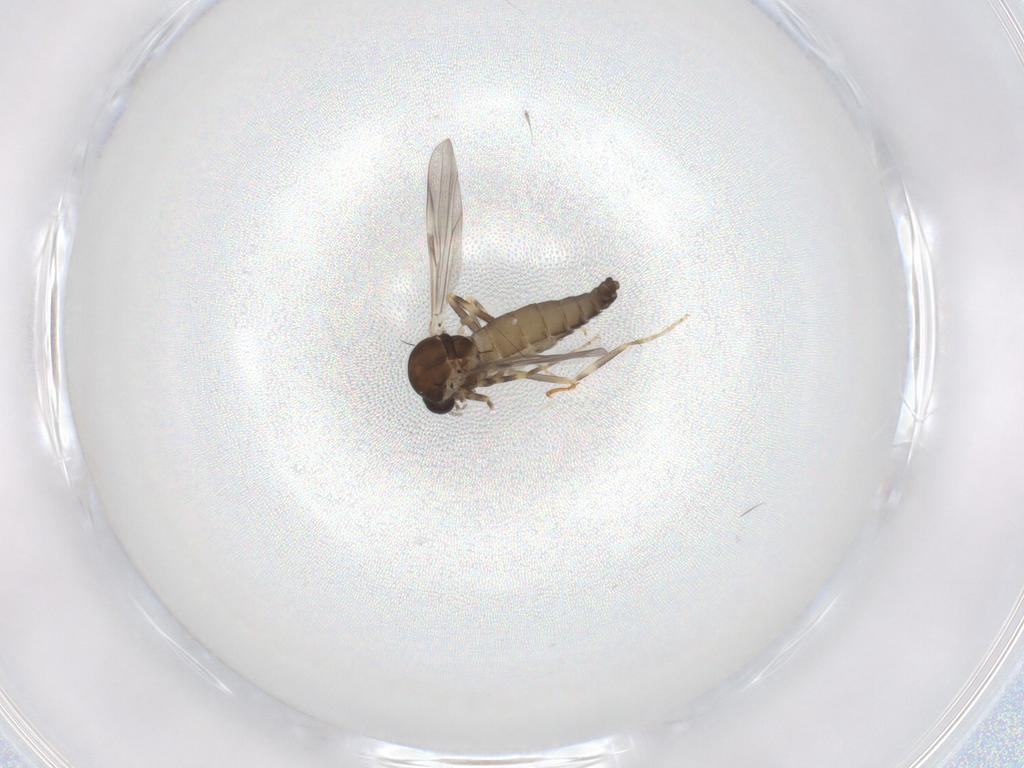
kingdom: Animalia
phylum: Arthropoda
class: Insecta
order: Diptera
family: Ceratopogonidae
